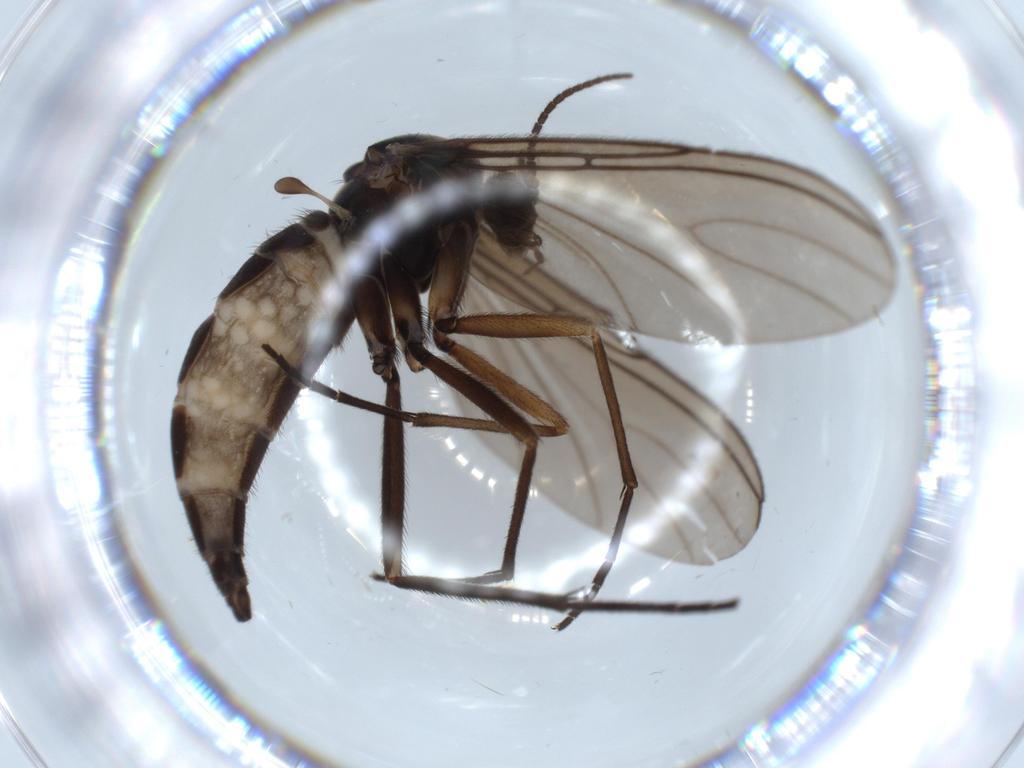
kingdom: Animalia
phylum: Arthropoda
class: Insecta
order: Diptera
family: Sciaridae
